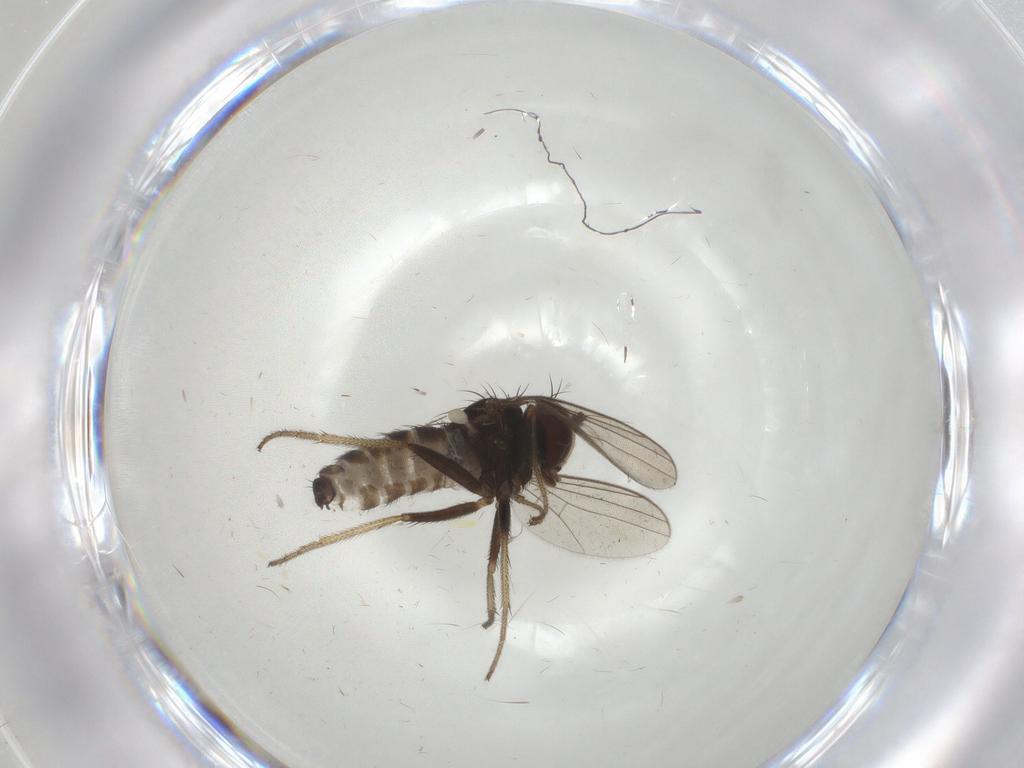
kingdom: Animalia
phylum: Arthropoda
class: Insecta
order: Diptera
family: Dolichopodidae
